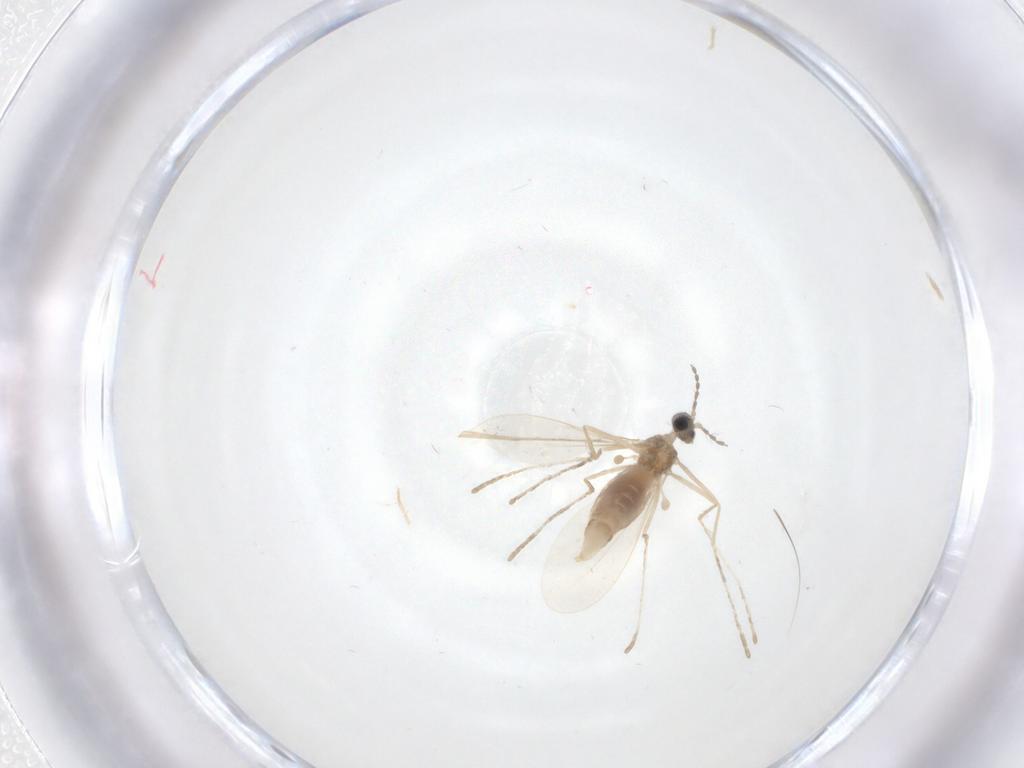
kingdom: Animalia
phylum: Arthropoda
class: Insecta
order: Diptera
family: Cecidomyiidae
